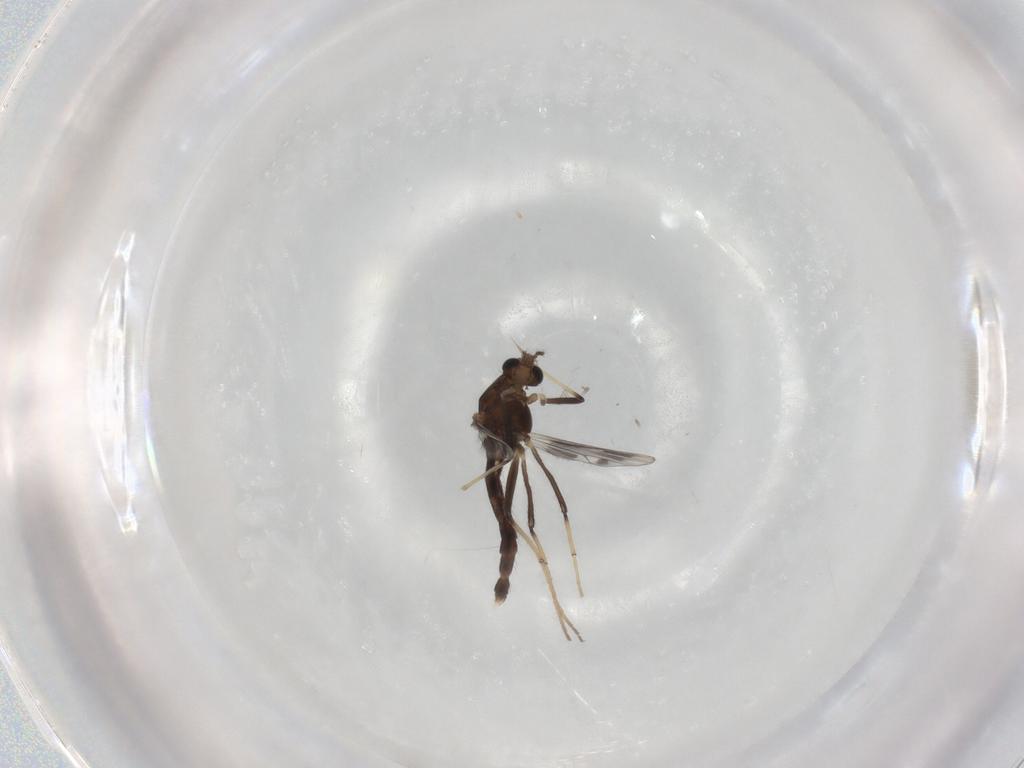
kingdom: Animalia
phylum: Arthropoda
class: Insecta
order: Diptera
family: Chironomidae
